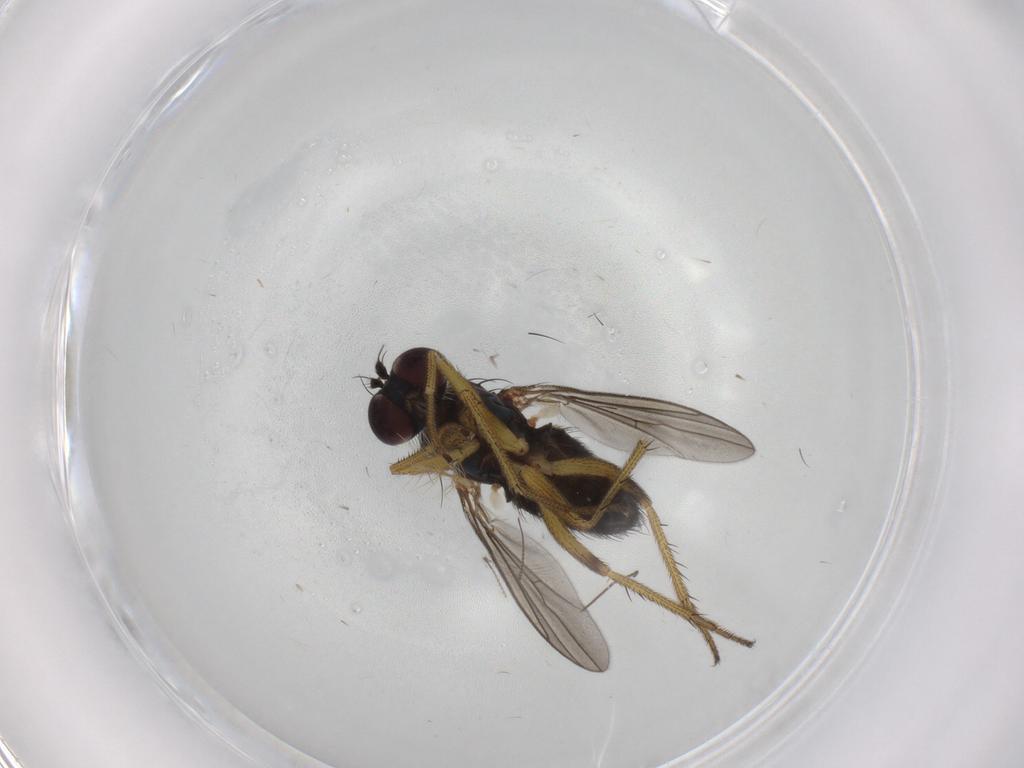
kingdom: Animalia
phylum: Arthropoda
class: Insecta
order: Diptera
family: Dolichopodidae
